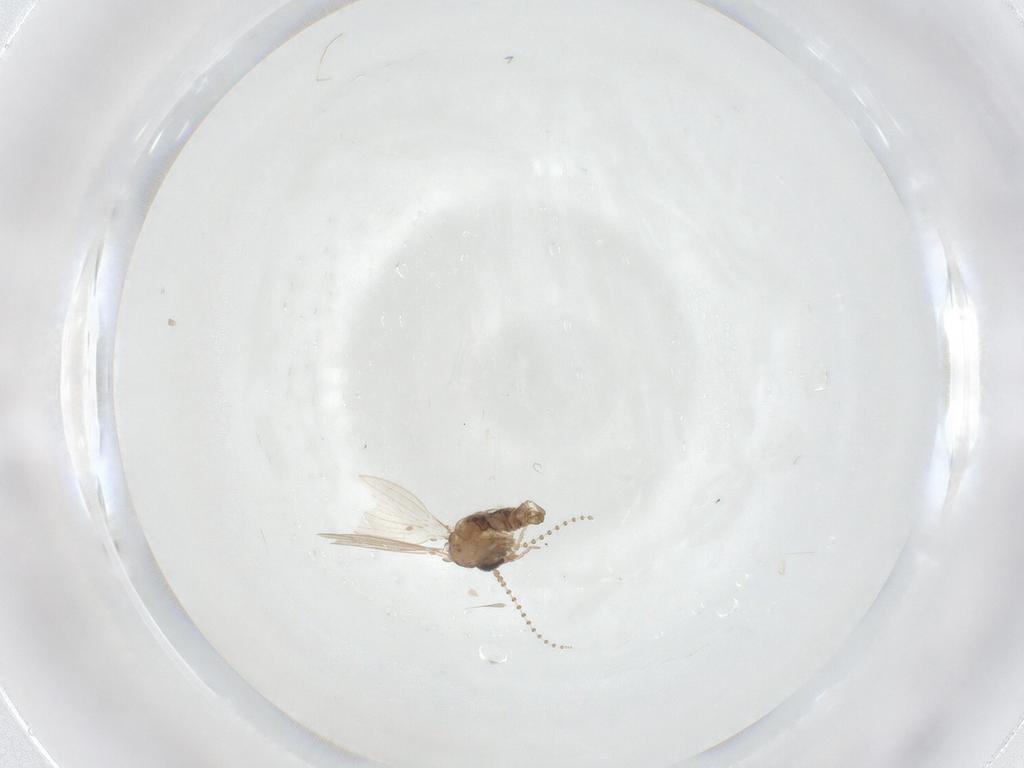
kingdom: Animalia
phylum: Arthropoda
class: Insecta
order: Diptera
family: Psychodidae
